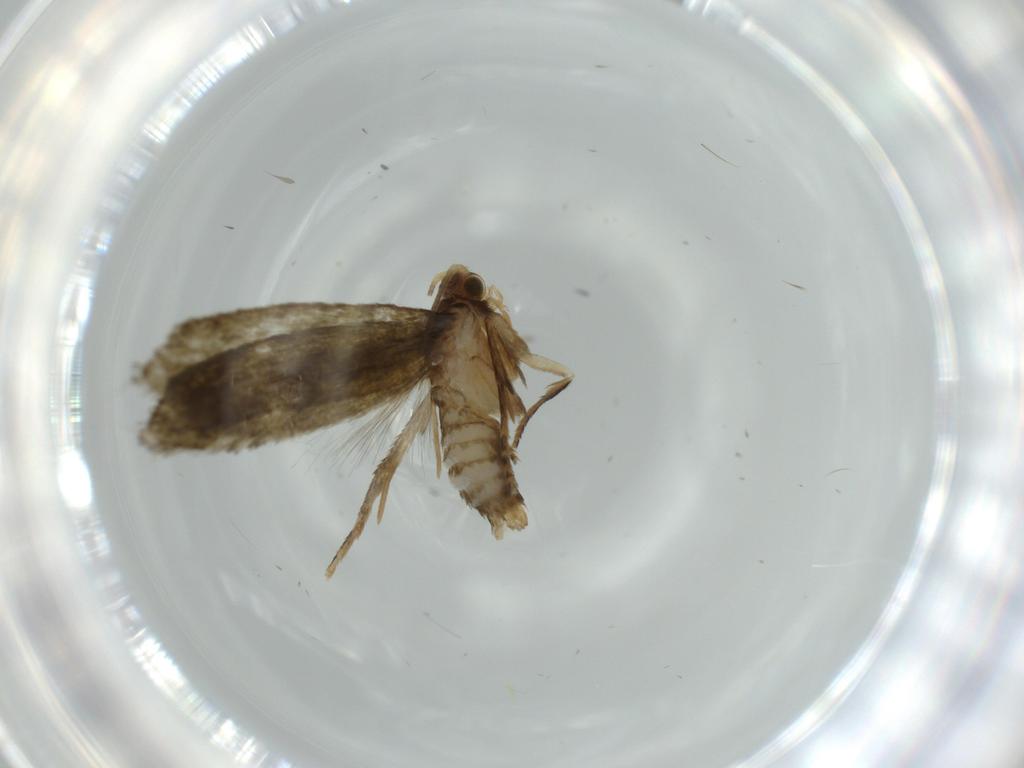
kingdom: Animalia
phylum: Arthropoda
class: Insecta
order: Lepidoptera
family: Tineidae
